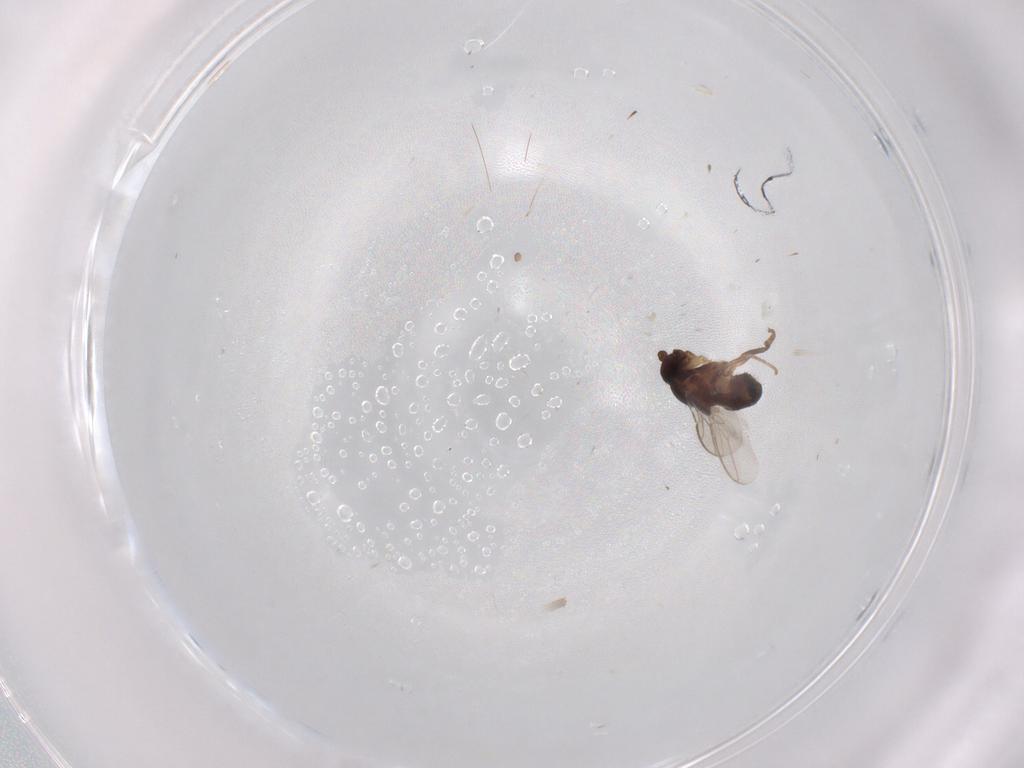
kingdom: Animalia
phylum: Arthropoda
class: Insecta
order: Diptera
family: Sphaeroceridae
